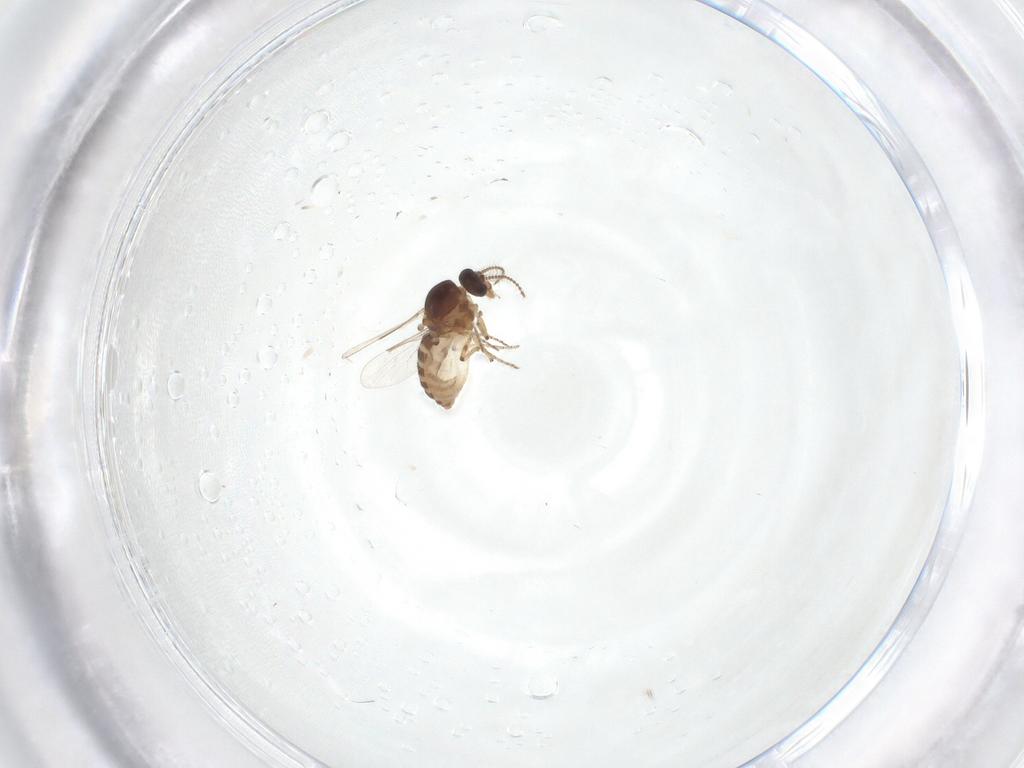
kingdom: Animalia
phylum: Arthropoda
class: Insecta
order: Diptera
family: Ceratopogonidae
